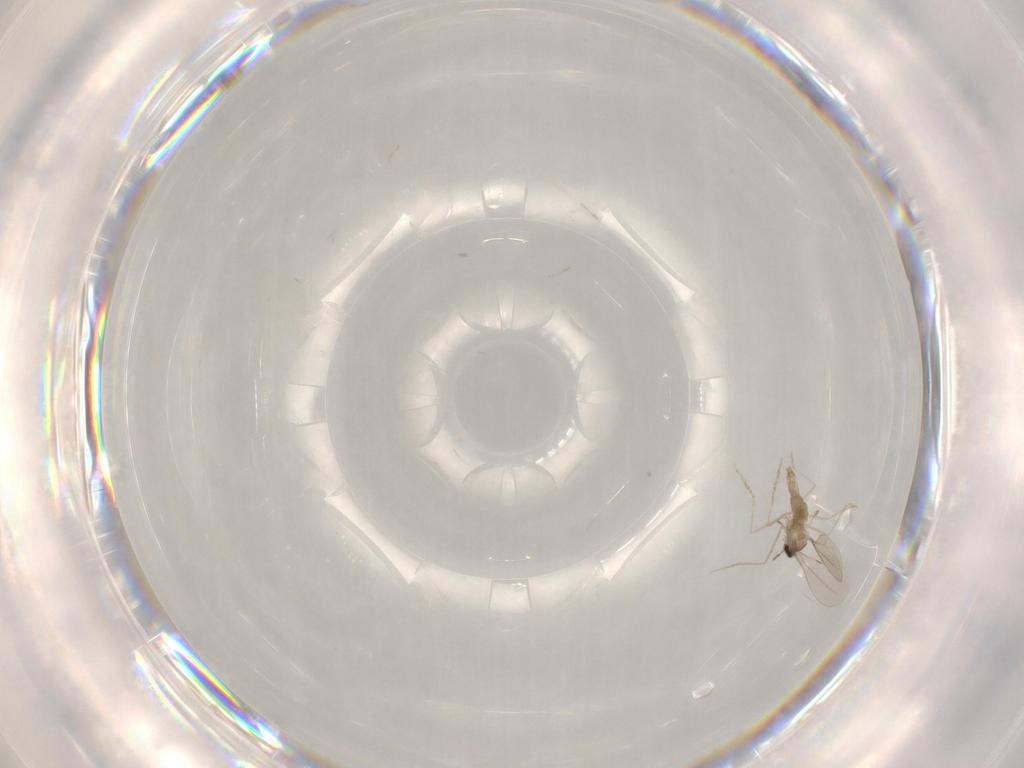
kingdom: Animalia
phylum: Arthropoda
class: Insecta
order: Diptera
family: Cecidomyiidae
